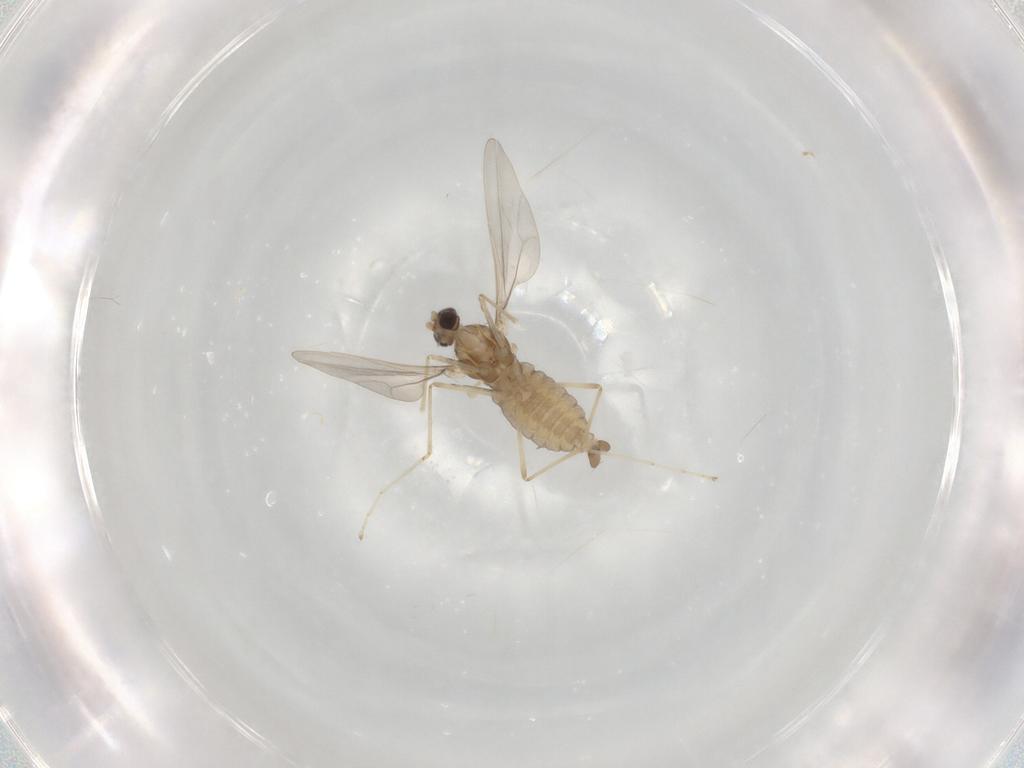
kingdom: Animalia
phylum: Arthropoda
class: Insecta
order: Diptera
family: Cecidomyiidae
